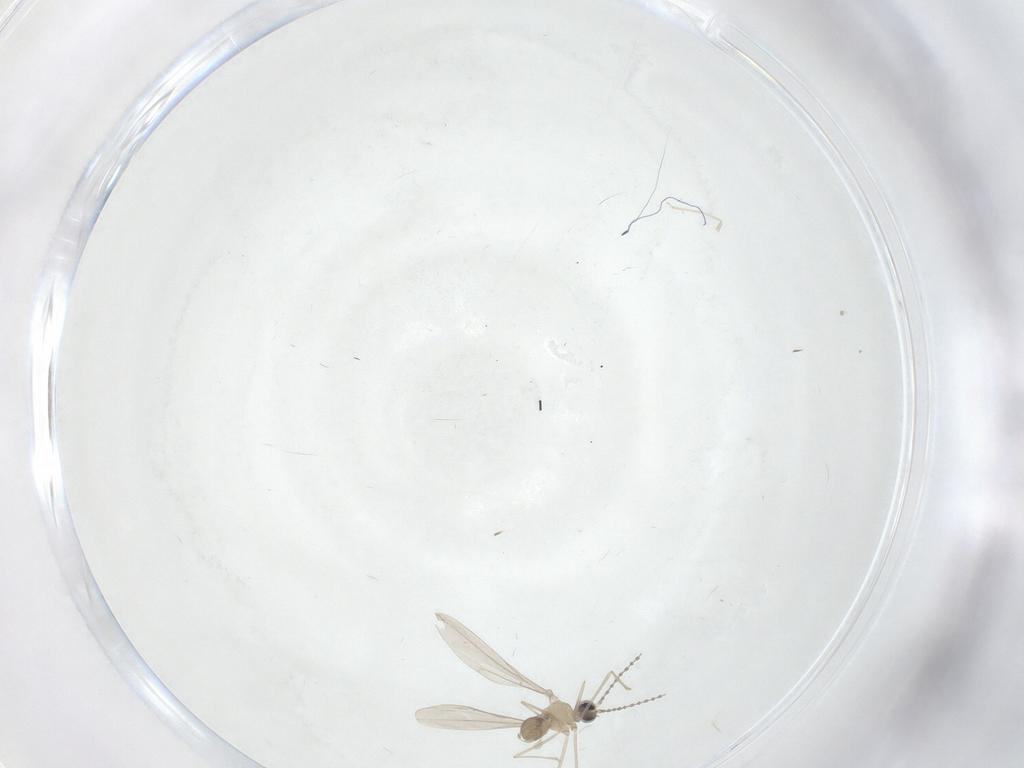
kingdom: Animalia
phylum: Arthropoda
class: Insecta
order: Diptera
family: Cecidomyiidae
